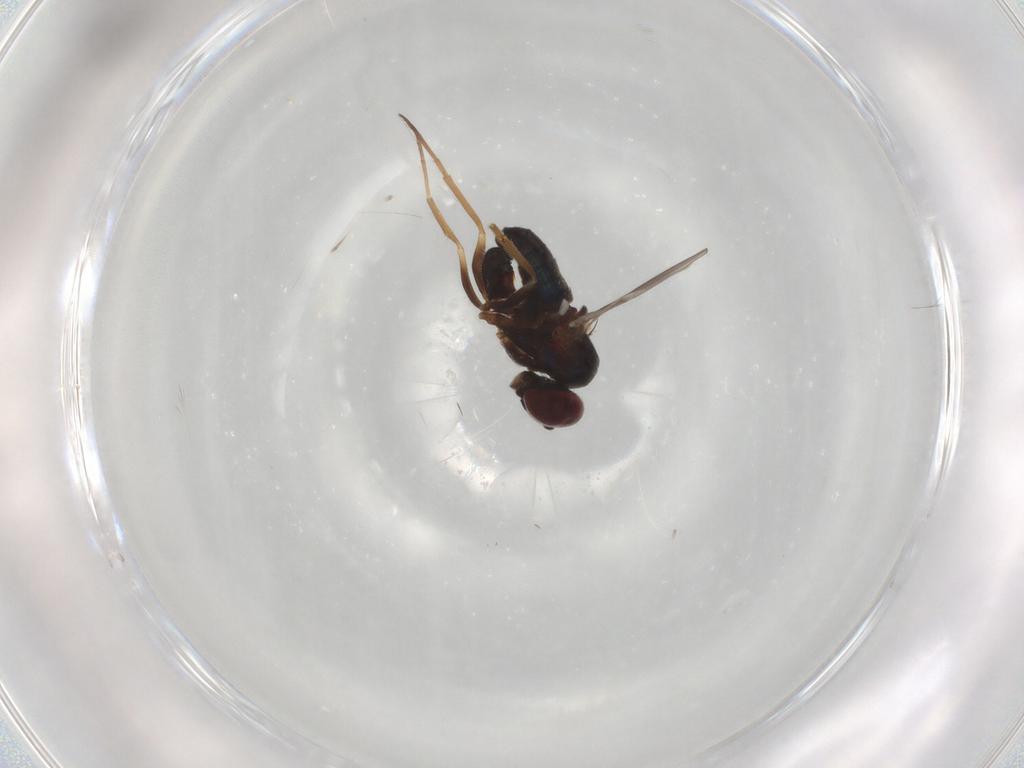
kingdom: Animalia
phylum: Arthropoda
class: Insecta
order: Diptera
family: Dolichopodidae
